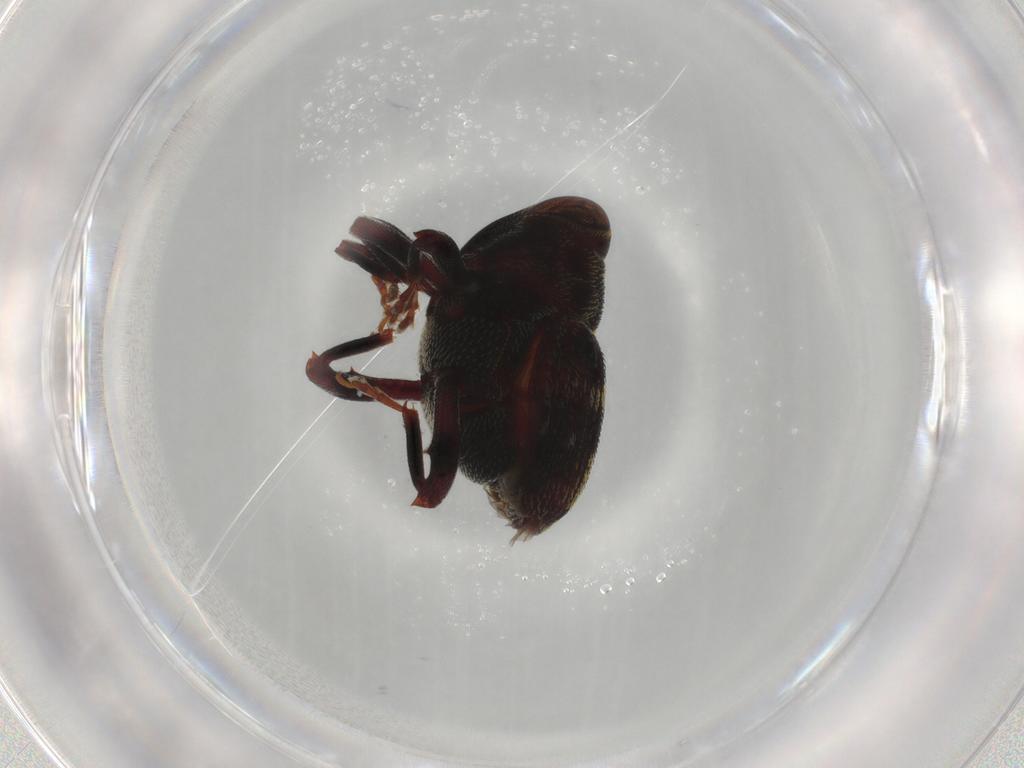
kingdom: Animalia
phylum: Arthropoda
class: Insecta
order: Coleoptera
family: Curculionidae
